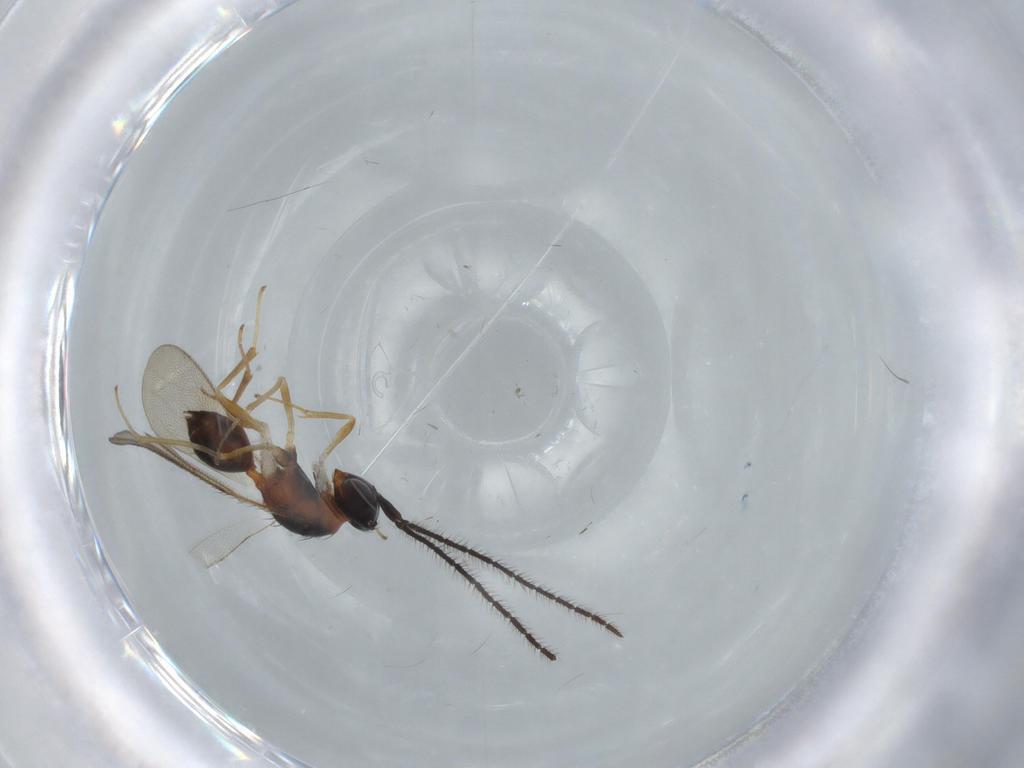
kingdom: Animalia
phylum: Arthropoda
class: Insecta
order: Hymenoptera
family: Diparidae
